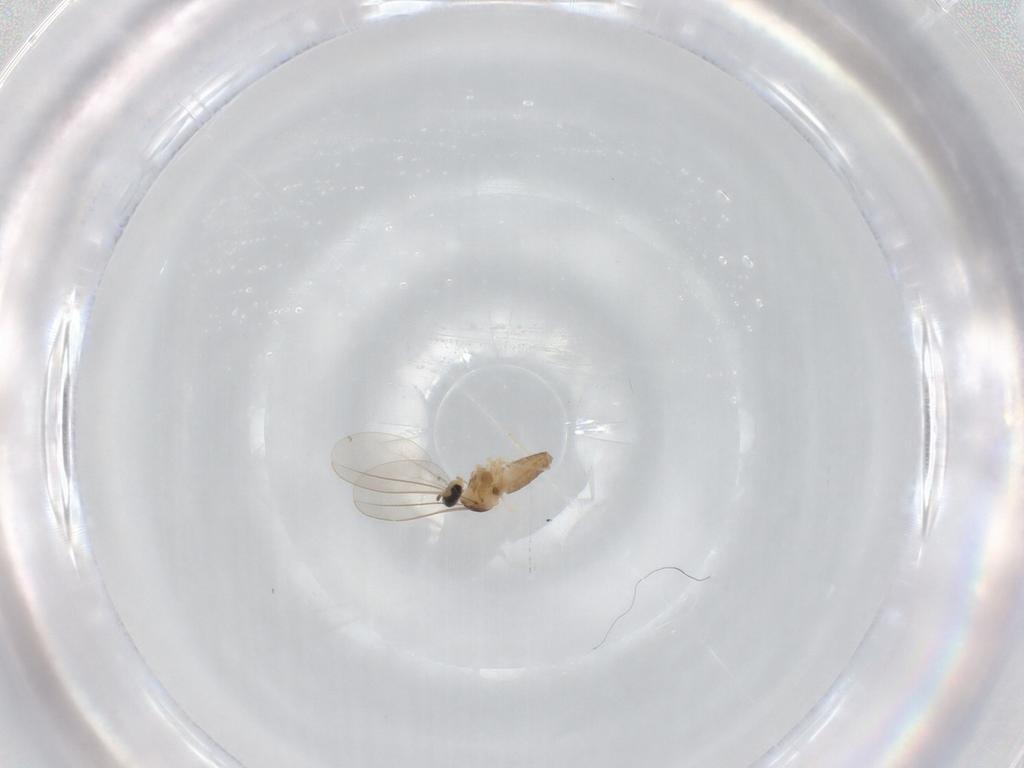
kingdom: Animalia
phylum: Arthropoda
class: Insecta
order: Diptera
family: Cecidomyiidae
